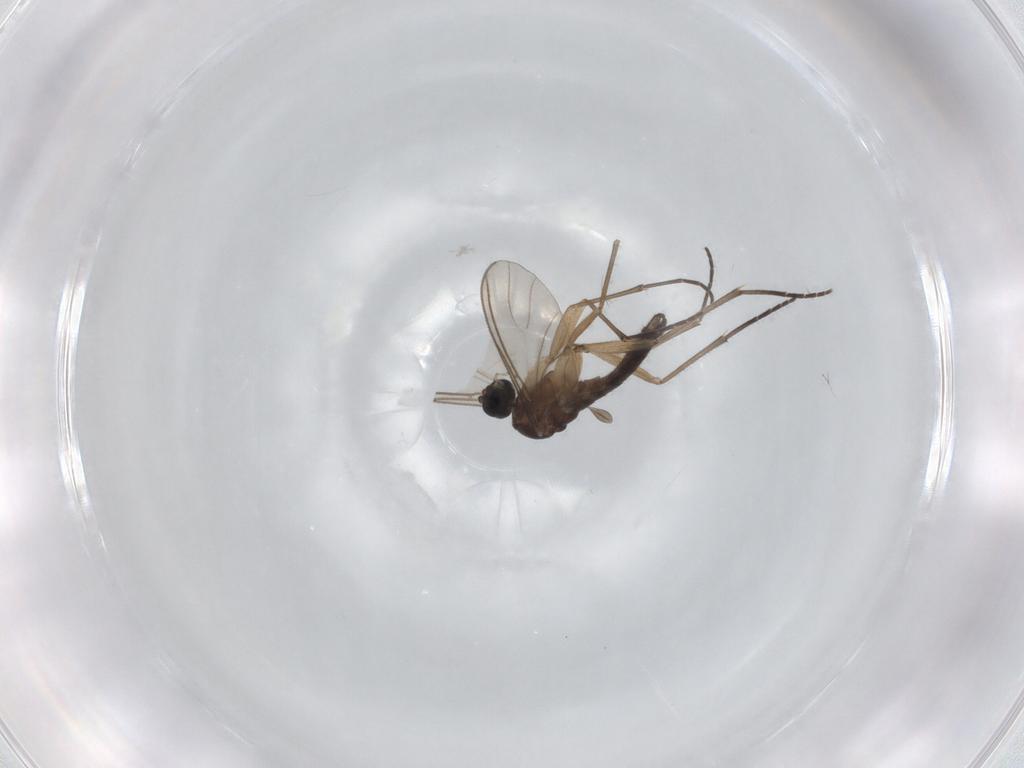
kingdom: Animalia
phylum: Arthropoda
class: Insecta
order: Diptera
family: Sciaridae
